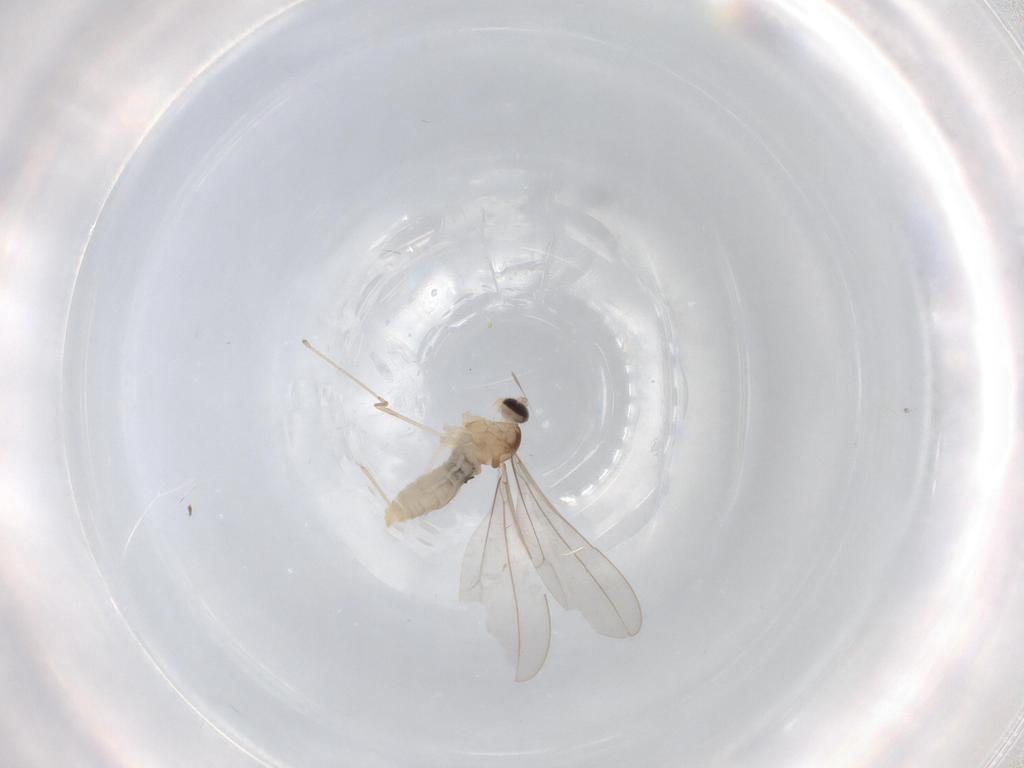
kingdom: Animalia
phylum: Arthropoda
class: Insecta
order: Diptera
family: Cecidomyiidae
